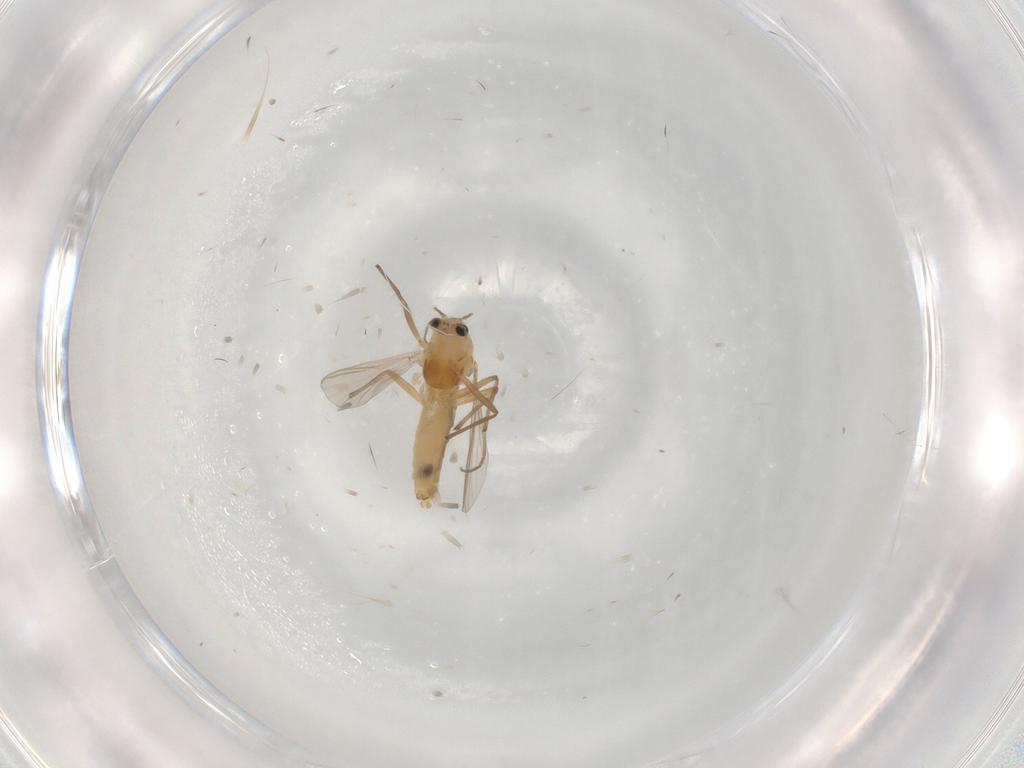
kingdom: Animalia
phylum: Arthropoda
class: Insecta
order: Diptera
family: Chironomidae
